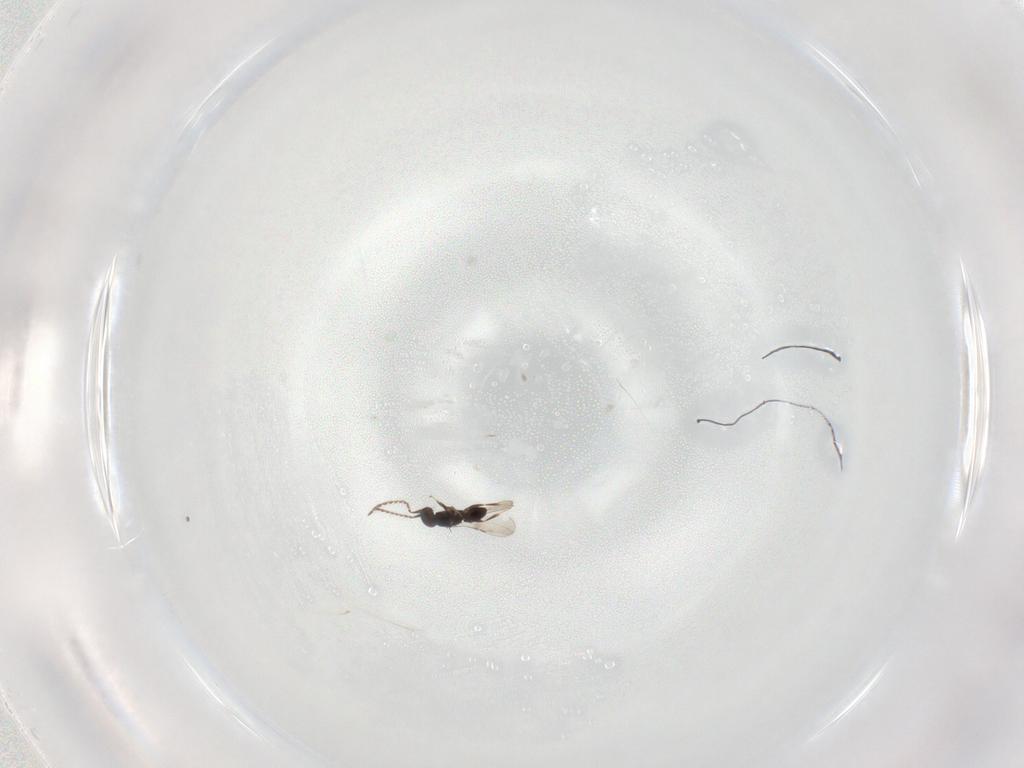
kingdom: Animalia
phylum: Arthropoda
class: Insecta
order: Hymenoptera
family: Ceraphronidae
